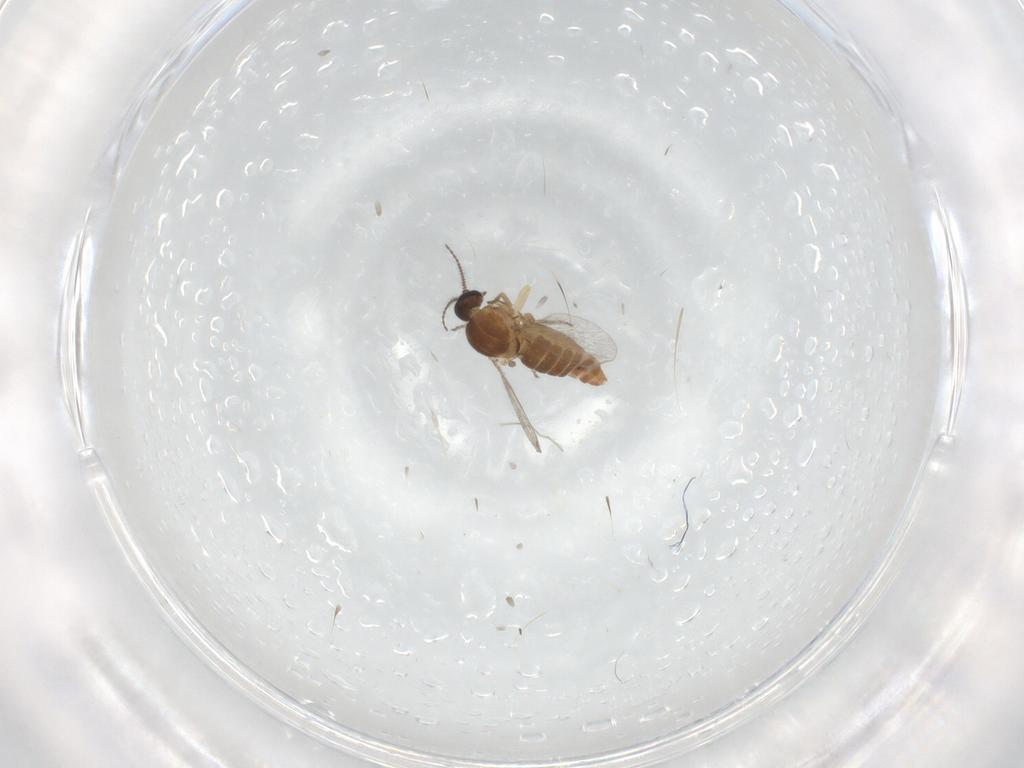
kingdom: Animalia
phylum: Arthropoda
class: Insecta
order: Diptera
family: Ceratopogonidae
